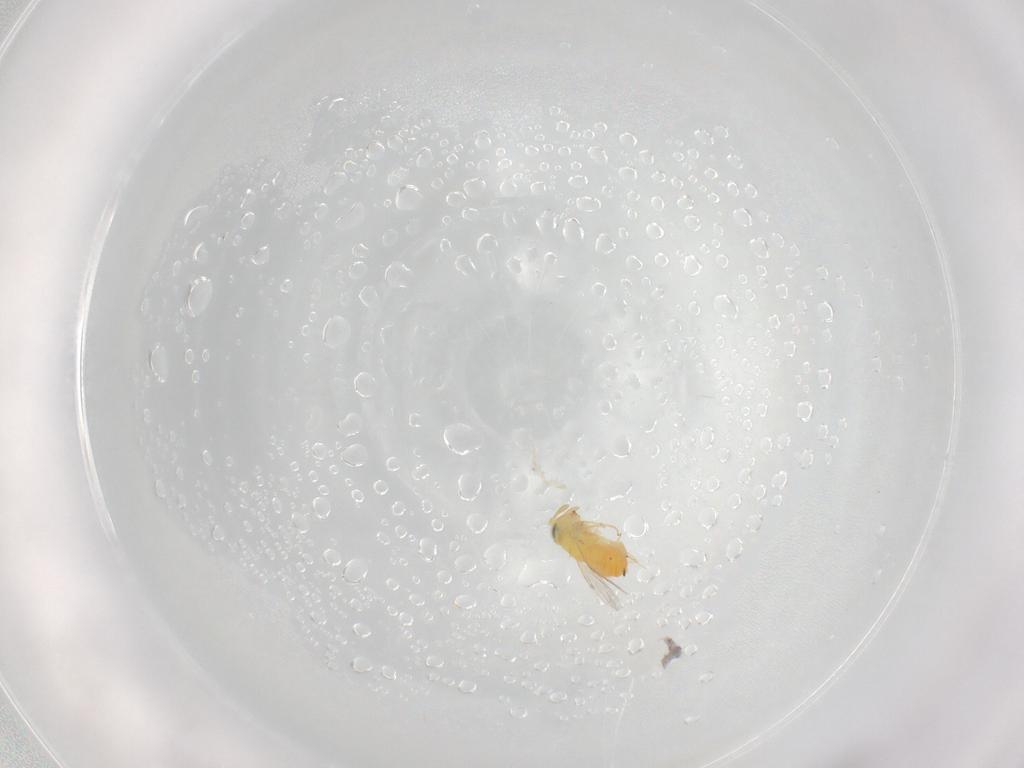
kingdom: Animalia
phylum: Arthropoda
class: Insecta
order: Hymenoptera
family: Encyrtidae
